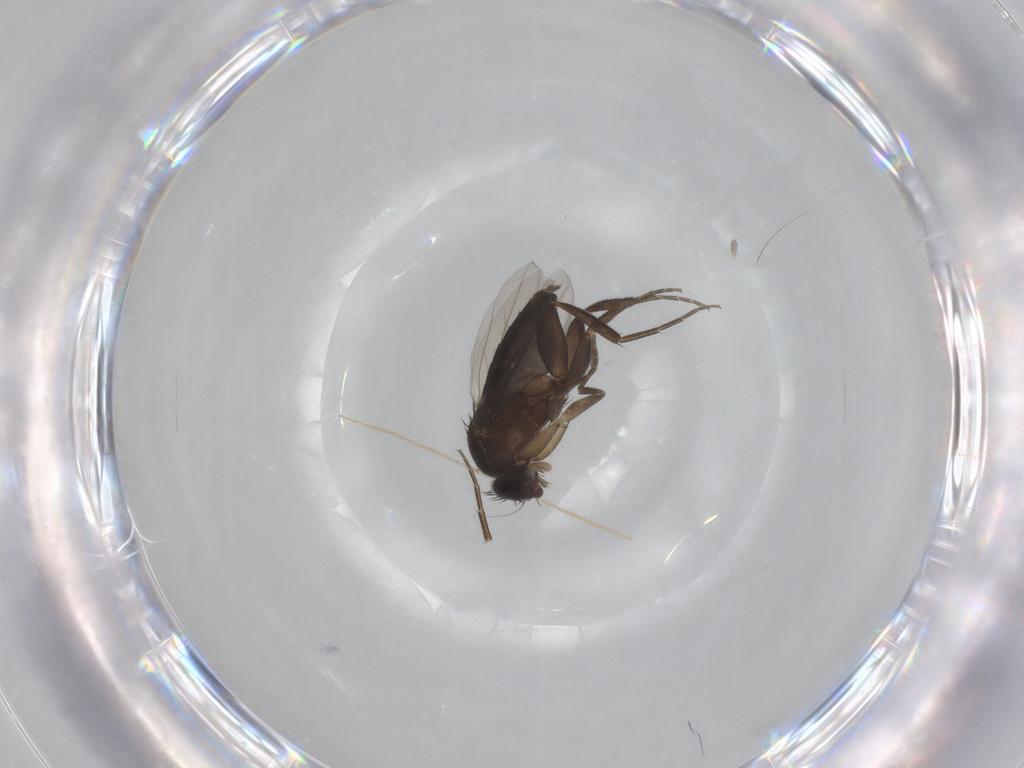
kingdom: Animalia
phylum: Arthropoda
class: Insecta
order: Diptera
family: Phoridae
